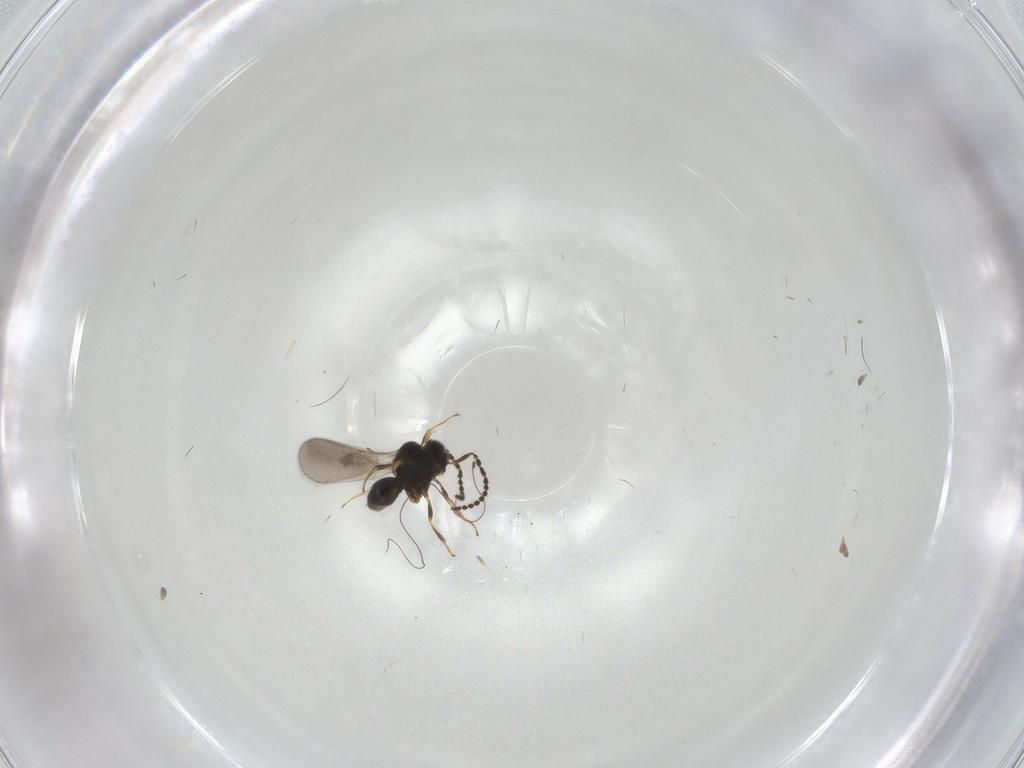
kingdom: Animalia
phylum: Arthropoda
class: Insecta
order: Hymenoptera
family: Scelionidae
